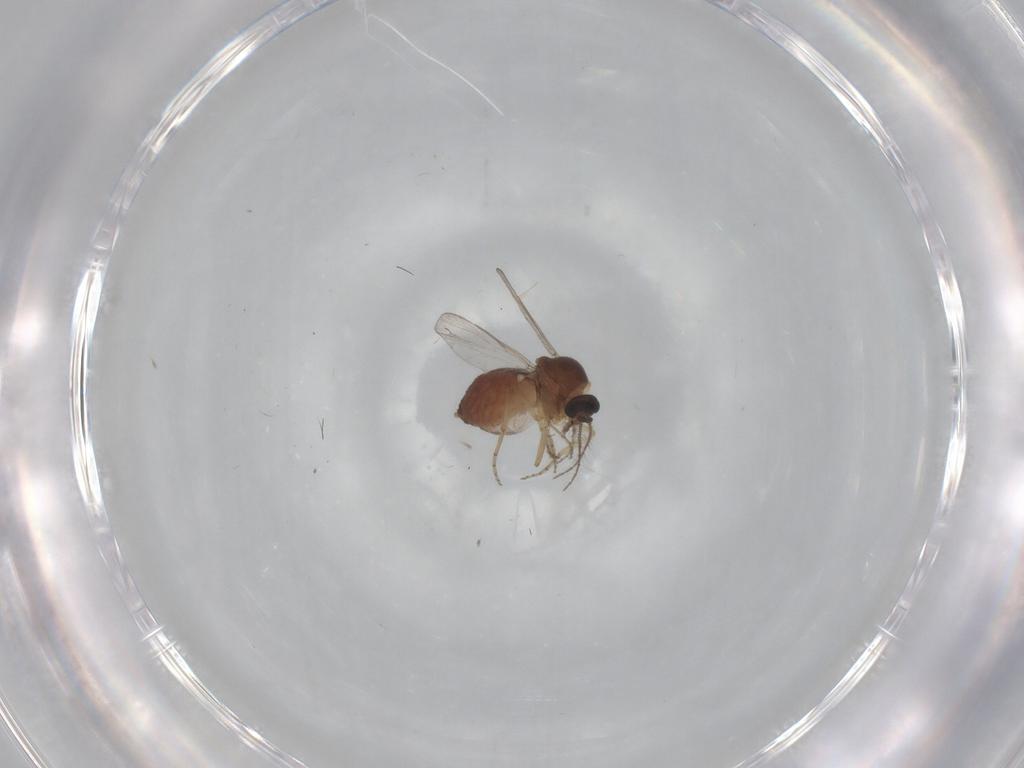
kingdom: Animalia
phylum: Arthropoda
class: Insecta
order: Diptera
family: Ceratopogonidae
